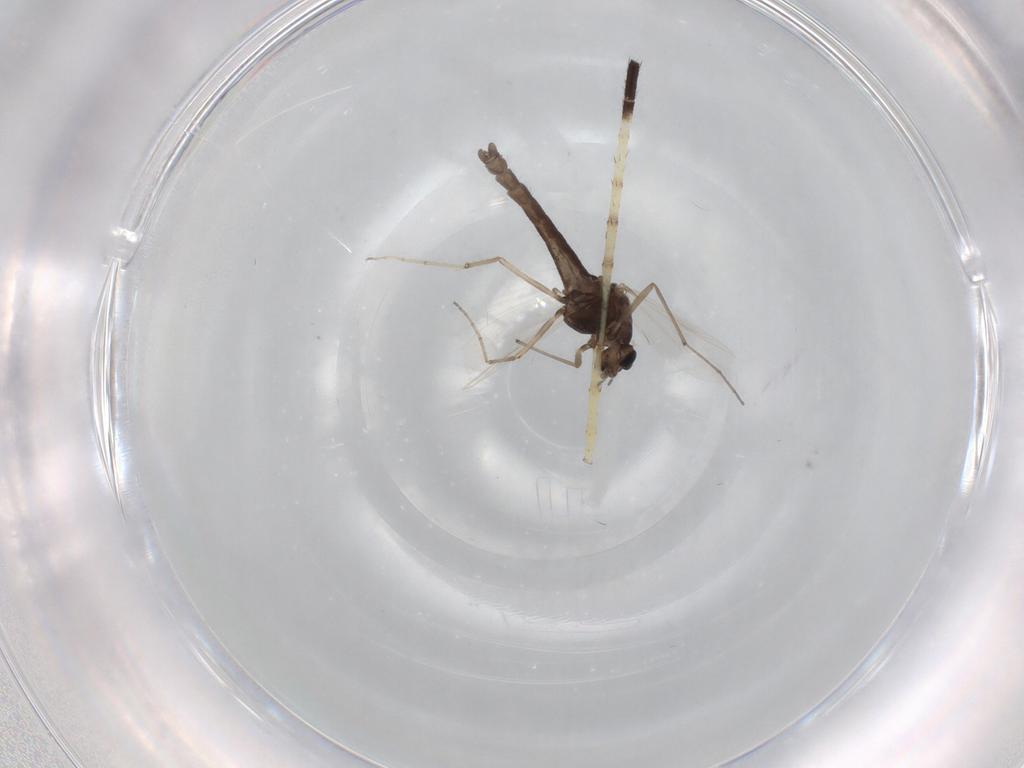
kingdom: Animalia
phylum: Arthropoda
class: Insecta
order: Diptera
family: Chironomidae
